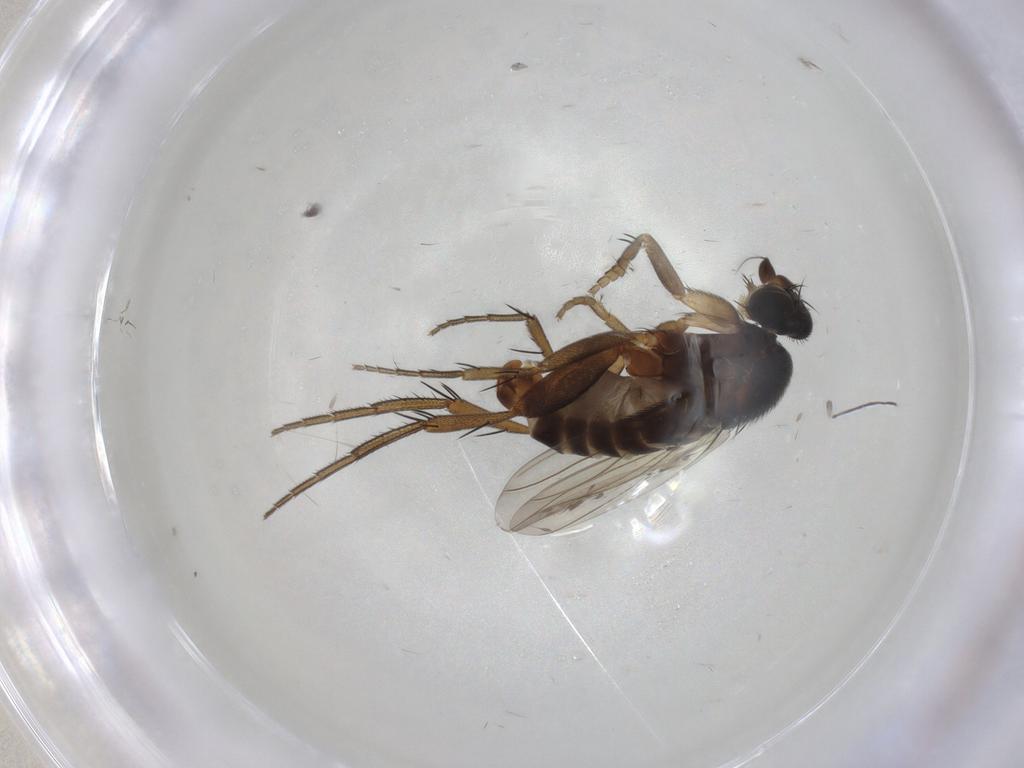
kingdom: Animalia
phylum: Arthropoda
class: Insecta
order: Diptera
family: Phoridae
